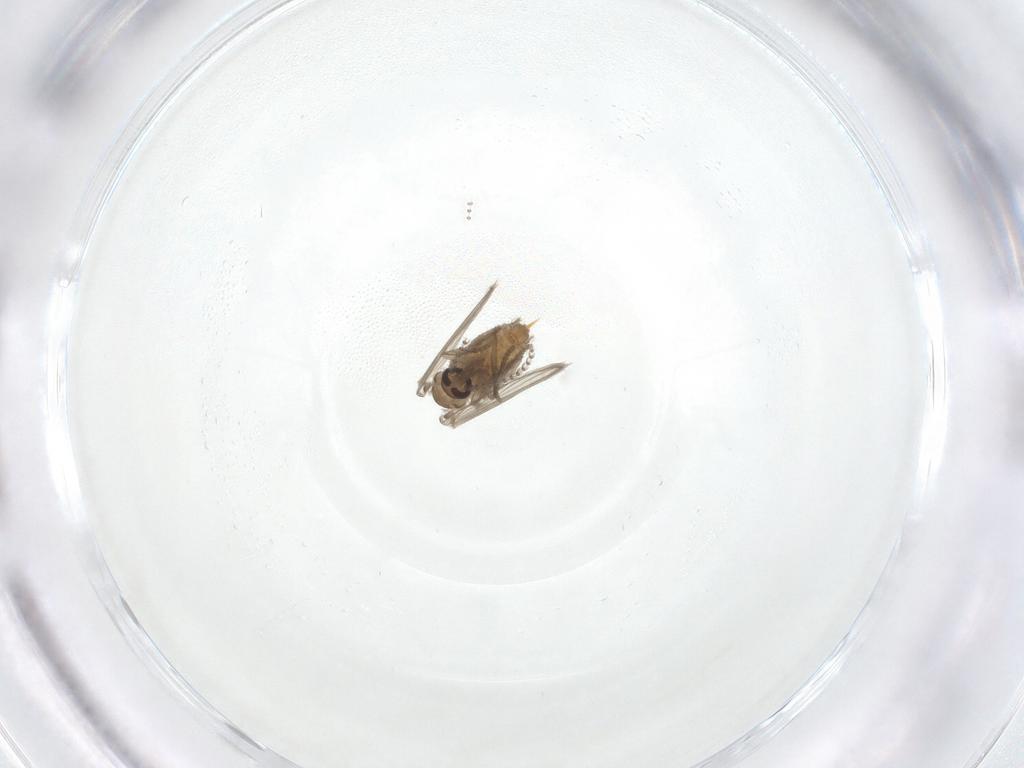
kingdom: Animalia
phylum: Arthropoda
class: Insecta
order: Diptera
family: Psychodidae
